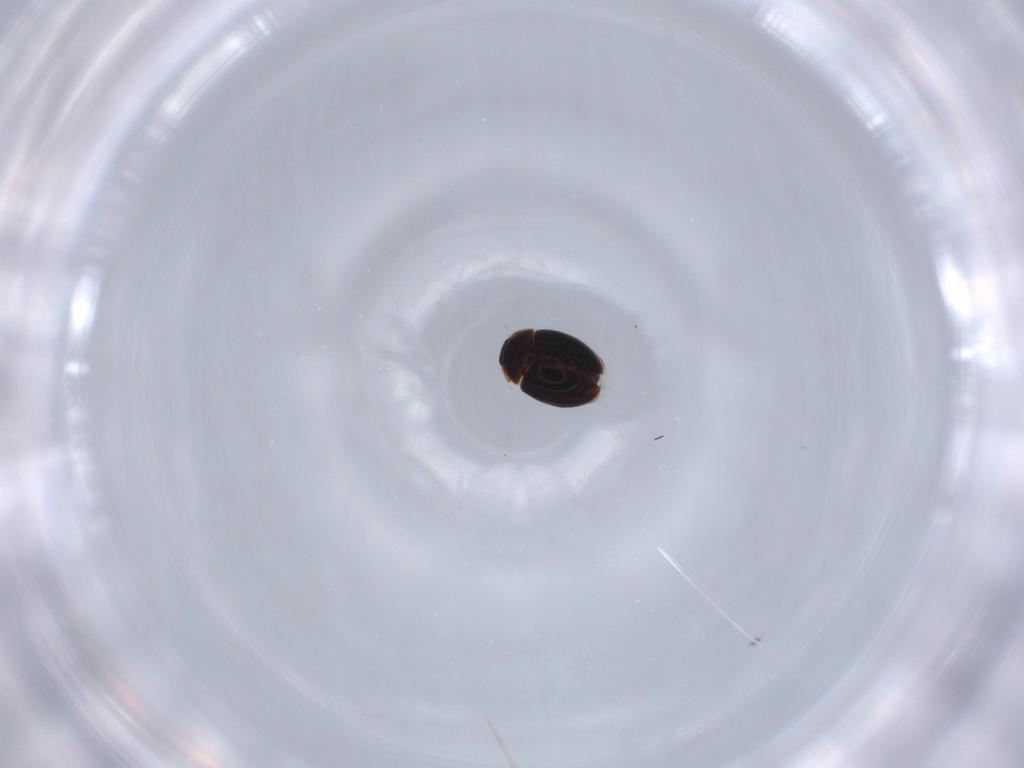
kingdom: Animalia
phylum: Arthropoda
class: Insecta
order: Coleoptera
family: Corylophidae
